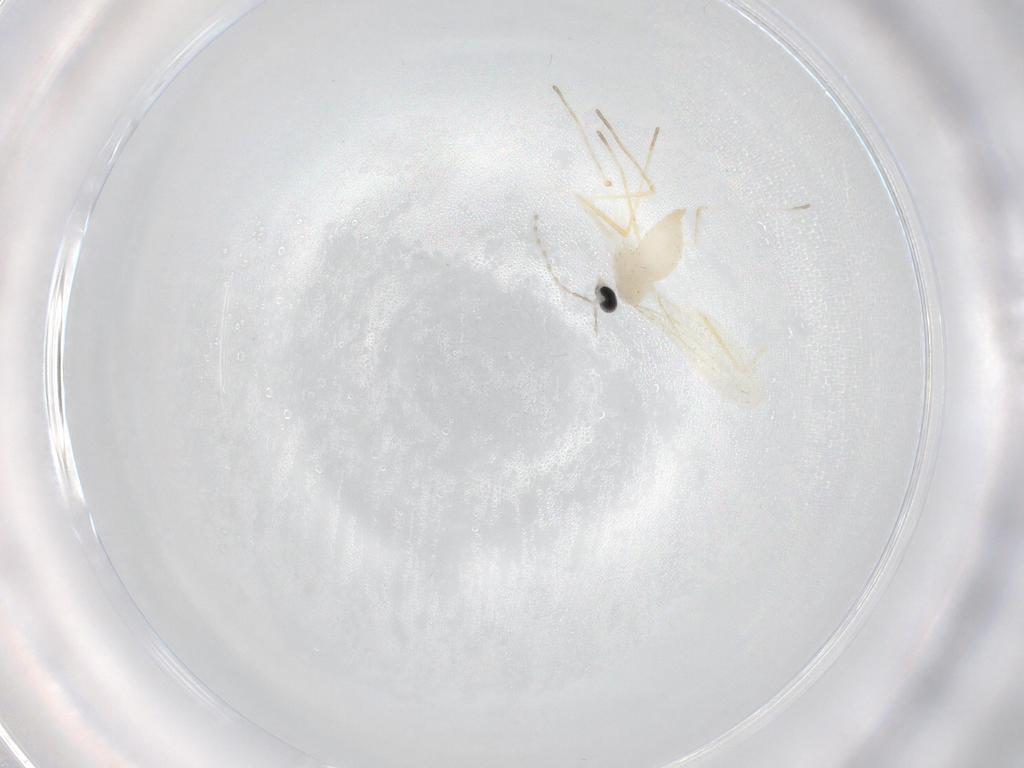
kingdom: Animalia
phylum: Arthropoda
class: Insecta
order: Diptera
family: Cecidomyiidae
